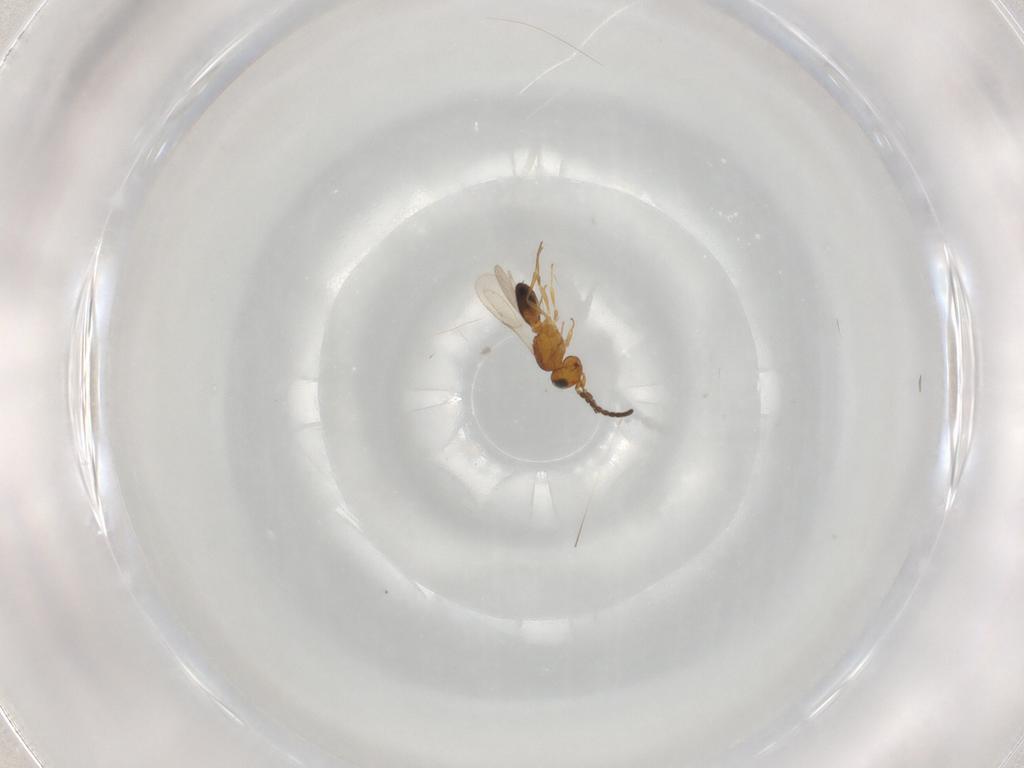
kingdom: Animalia
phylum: Arthropoda
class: Insecta
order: Hymenoptera
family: Scelionidae
